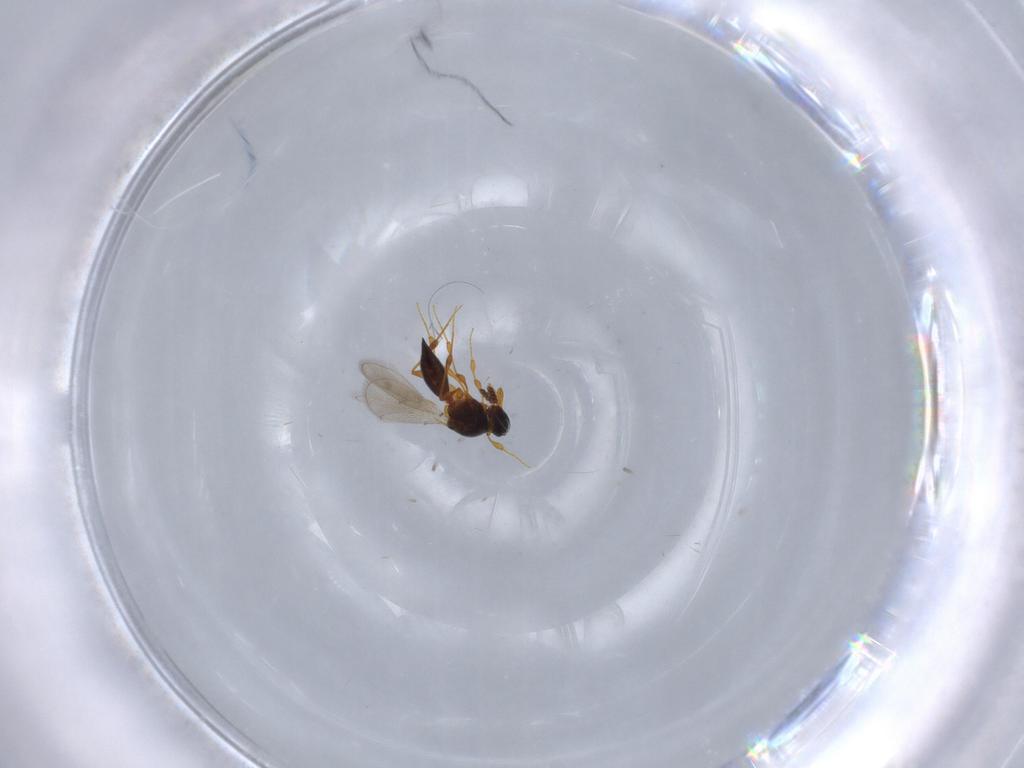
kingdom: Animalia
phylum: Arthropoda
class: Insecta
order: Hymenoptera
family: Platygastridae
